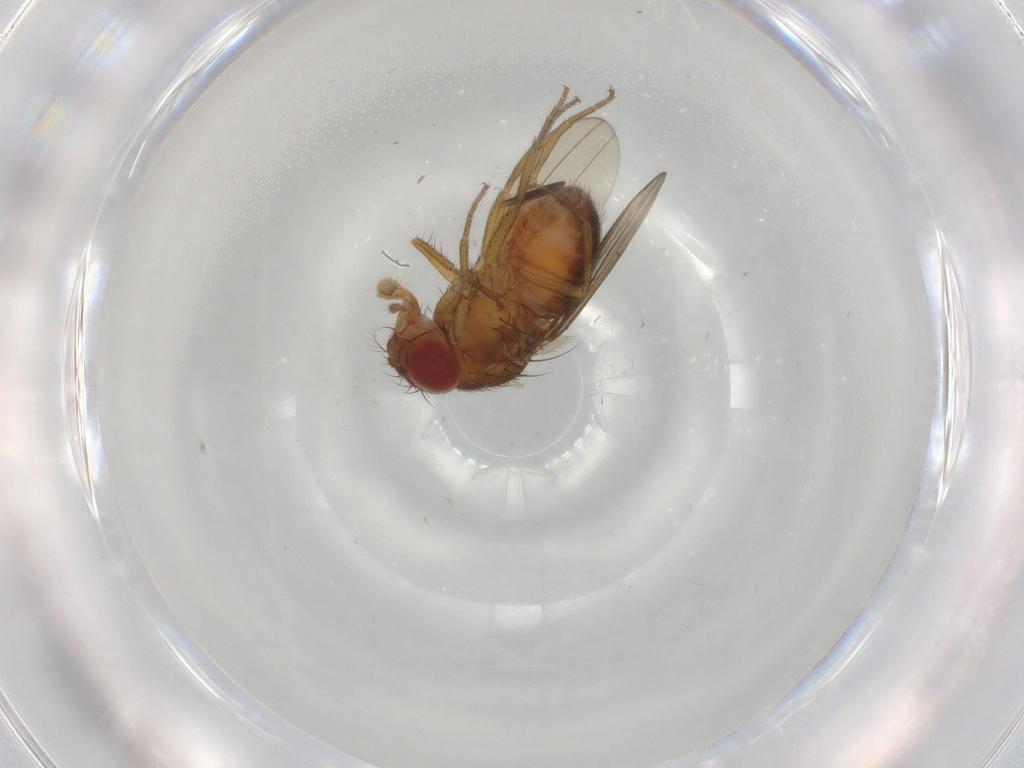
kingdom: Animalia
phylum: Arthropoda
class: Insecta
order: Diptera
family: Drosophilidae
